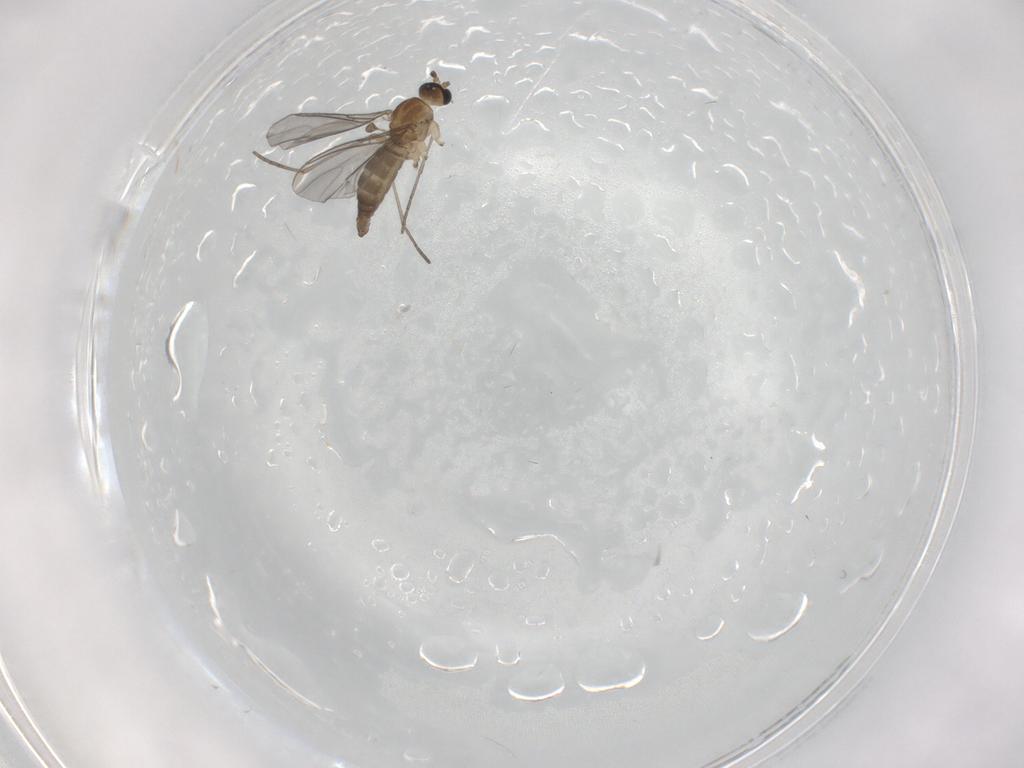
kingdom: Animalia
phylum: Arthropoda
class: Insecta
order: Diptera
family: Sciaridae
